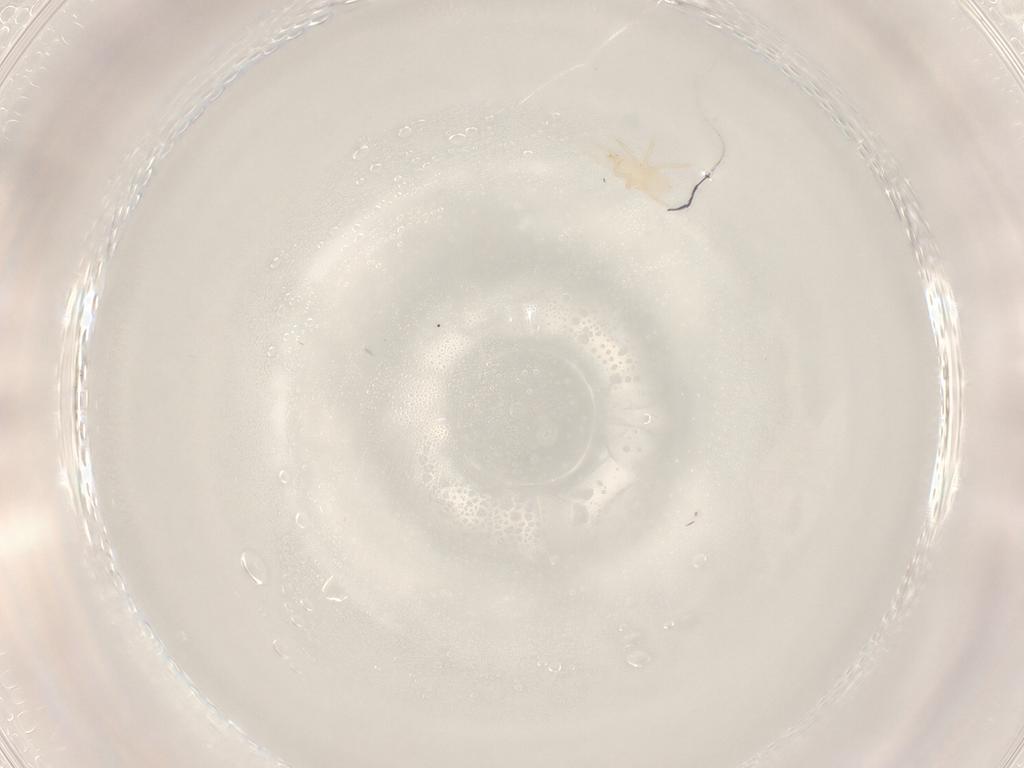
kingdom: Animalia
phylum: Arthropoda
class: Arachnida
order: Mesostigmata
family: Laelapidae
